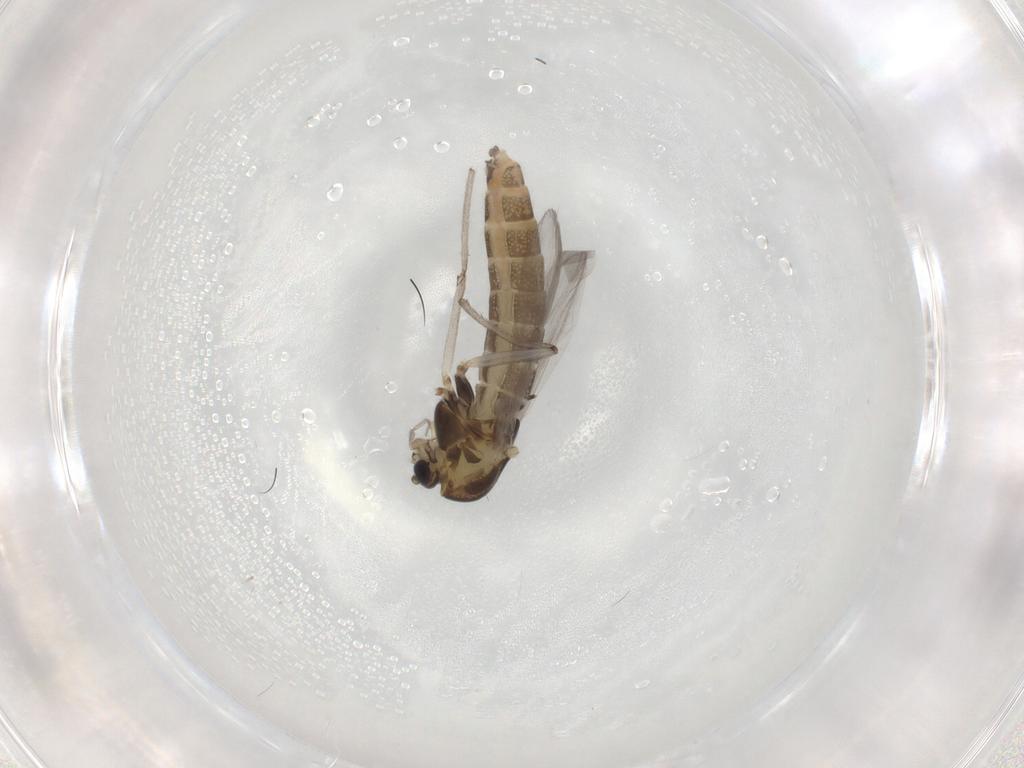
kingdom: Animalia
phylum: Arthropoda
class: Insecta
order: Diptera
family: Chironomidae
